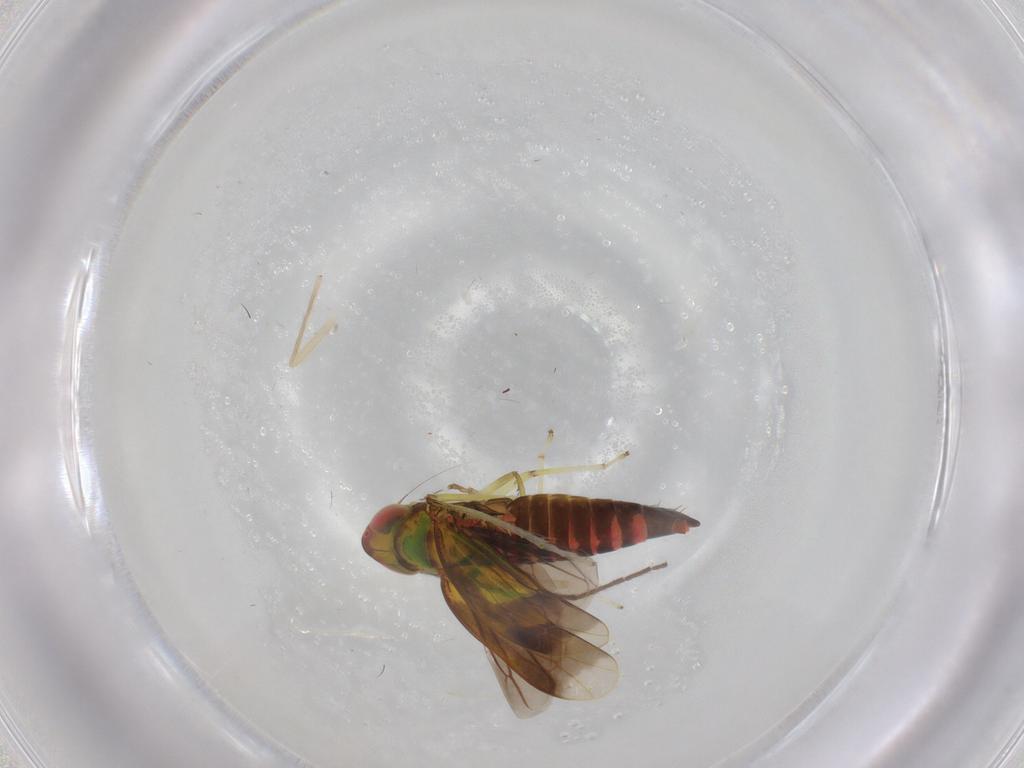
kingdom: Animalia
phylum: Arthropoda
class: Insecta
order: Hemiptera
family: Cicadellidae
